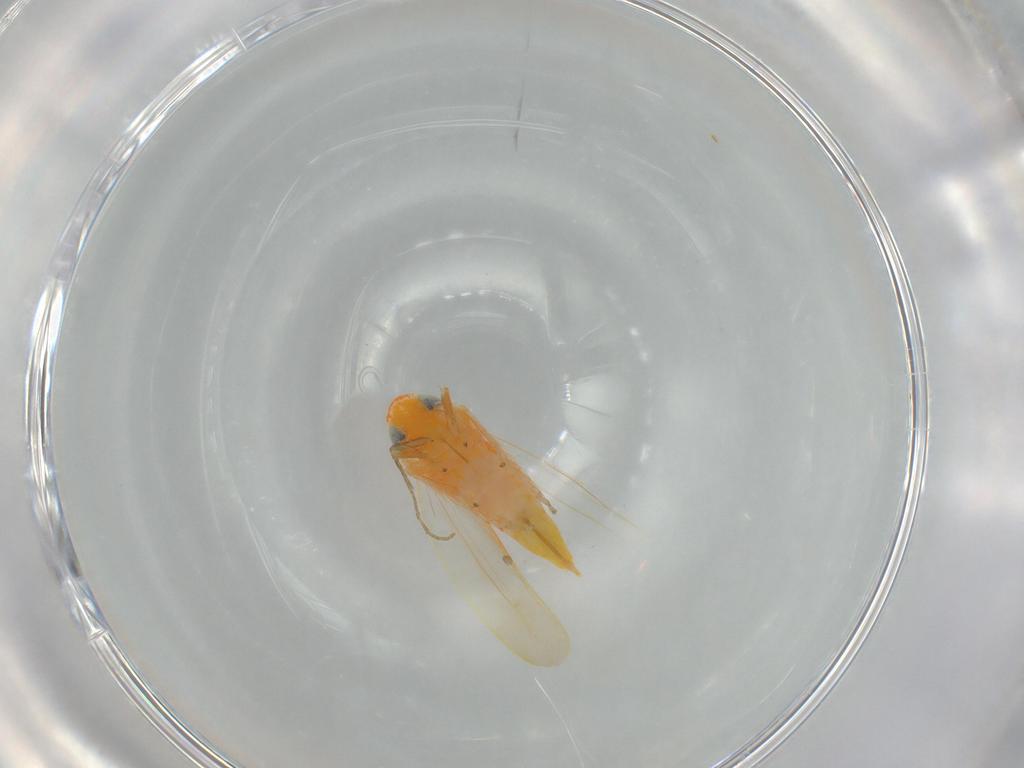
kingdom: Animalia
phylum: Arthropoda
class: Insecta
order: Hemiptera
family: Cicadellidae
